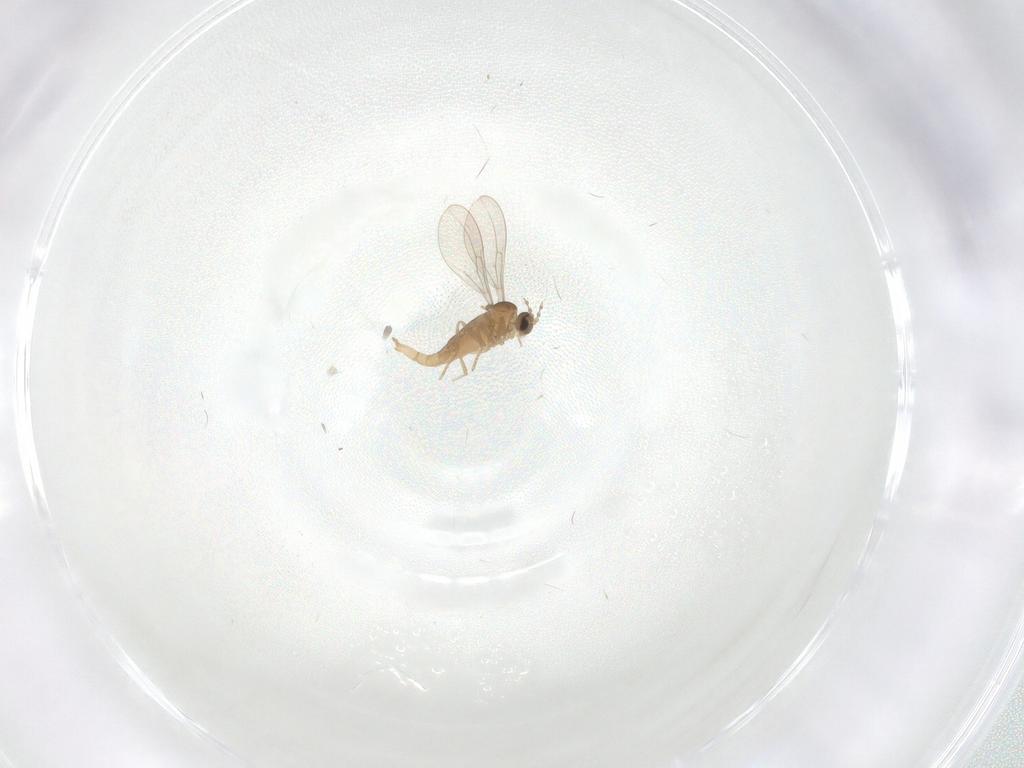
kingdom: Animalia
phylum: Arthropoda
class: Insecta
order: Diptera
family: Cecidomyiidae
